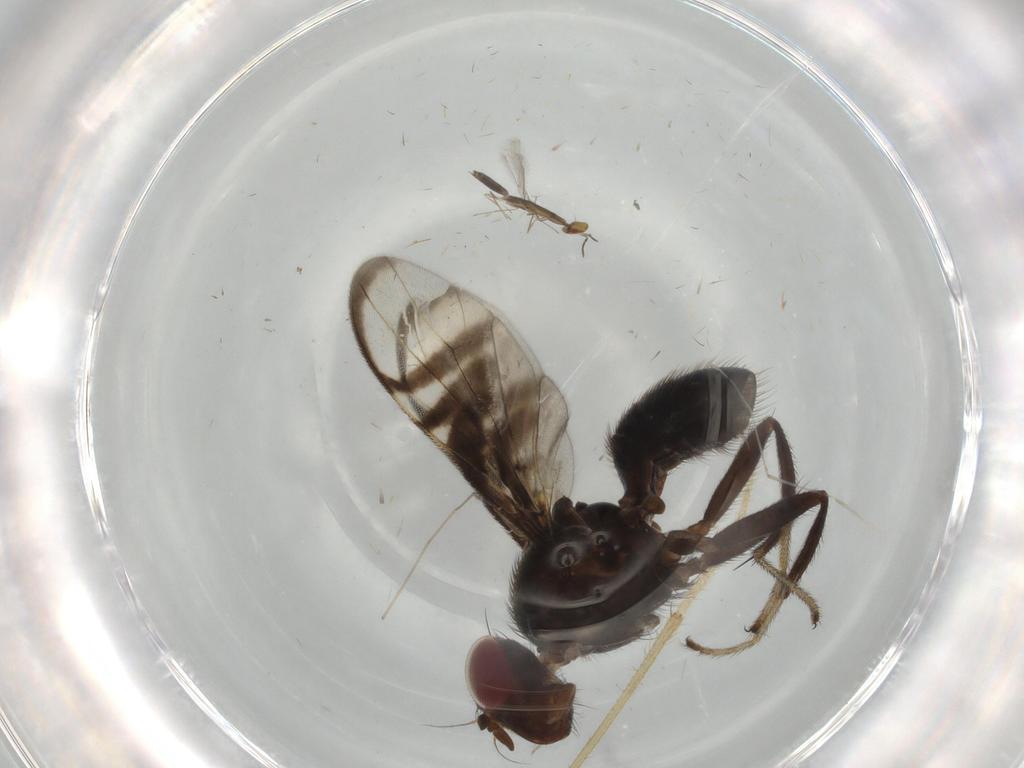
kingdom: Animalia
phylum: Arthropoda
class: Insecta
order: Diptera
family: Limoniidae
